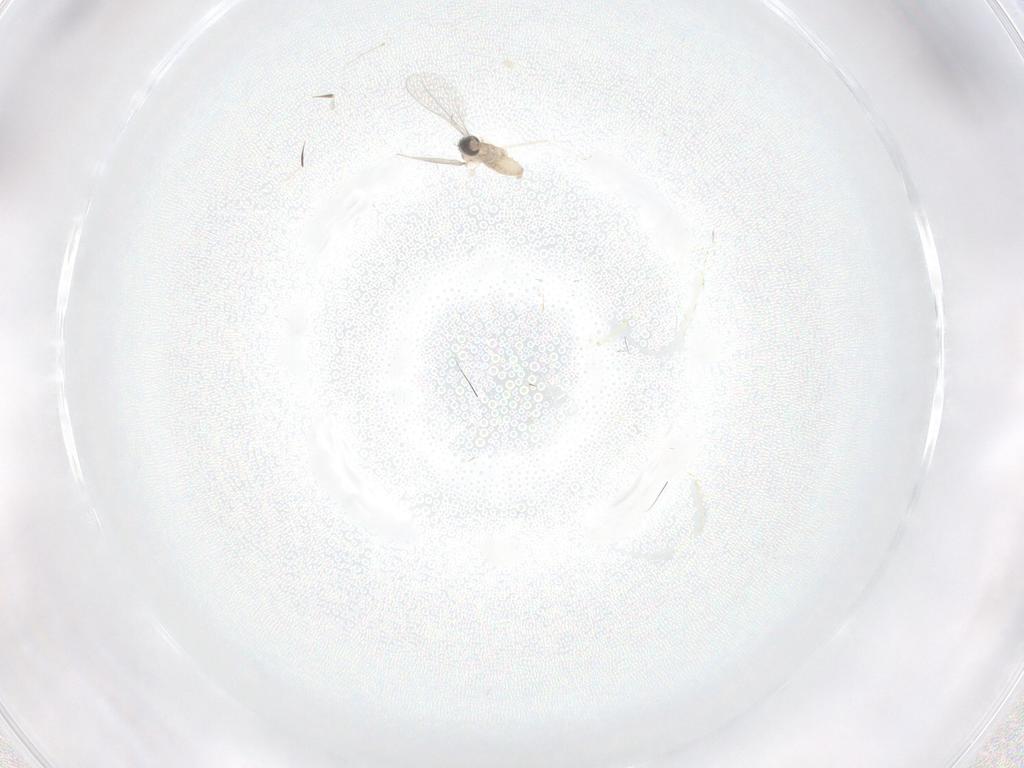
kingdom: Animalia
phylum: Arthropoda
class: Insecta
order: Diptera
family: Cecidomyiidae
